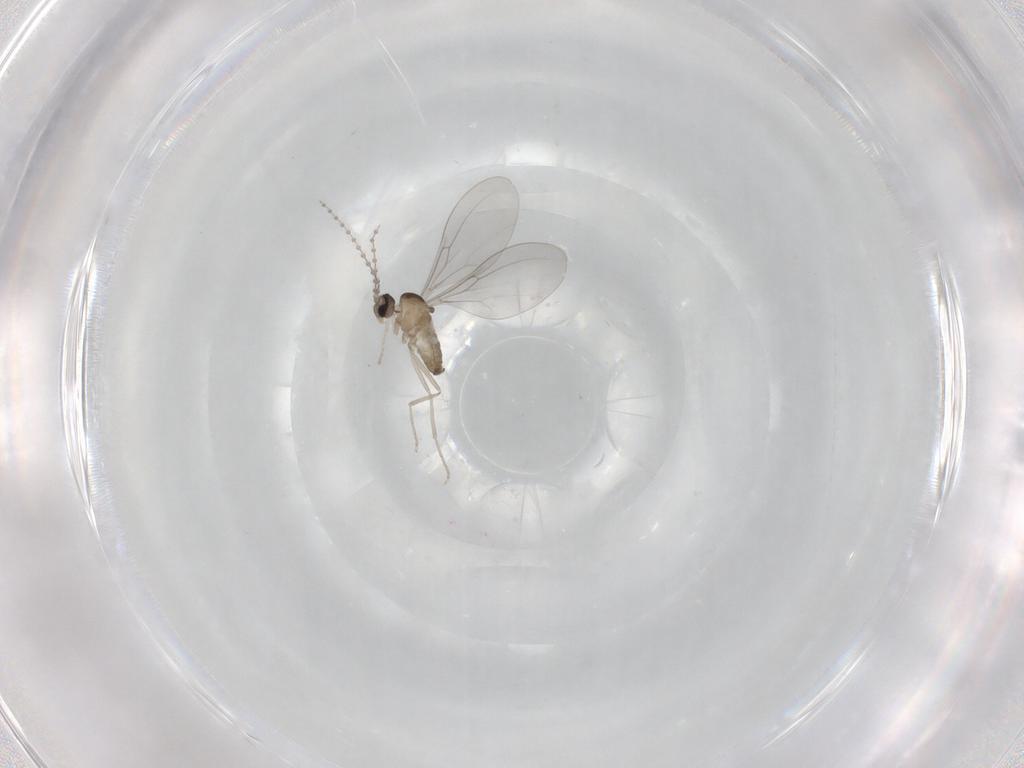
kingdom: Animalia
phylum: Arthropoda
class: Insecta
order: Diptera
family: Cecidomyiidae
